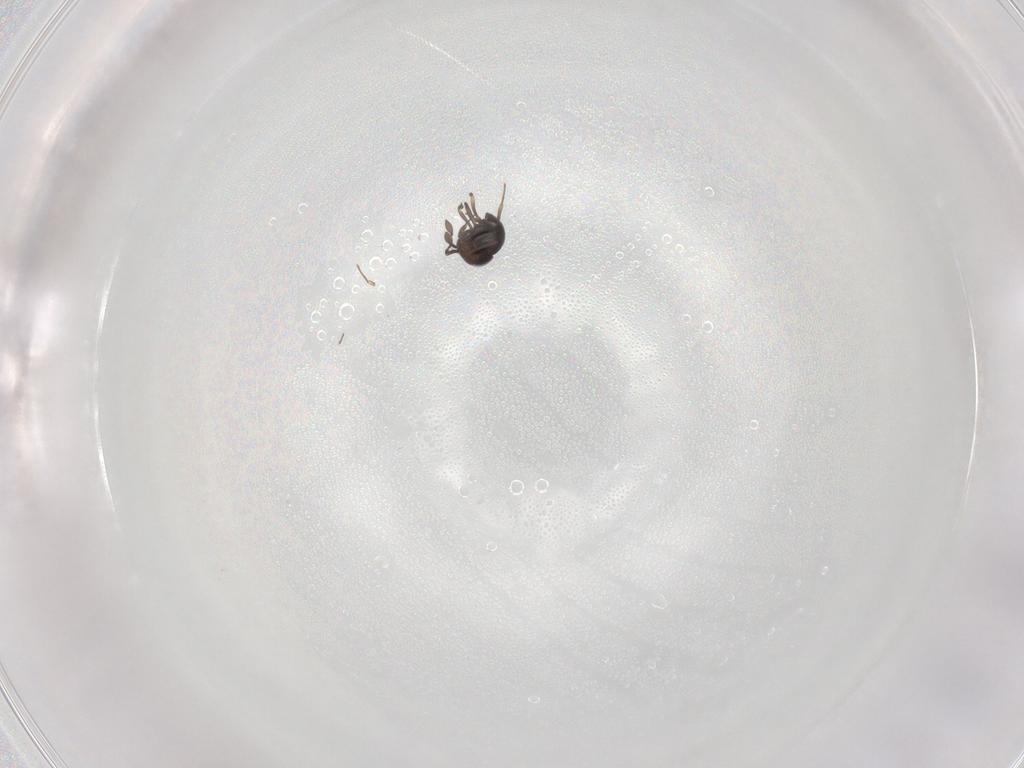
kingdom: Animalia
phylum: Arthropoda
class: Insecta
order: Hymenoptera
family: Scelionidae
